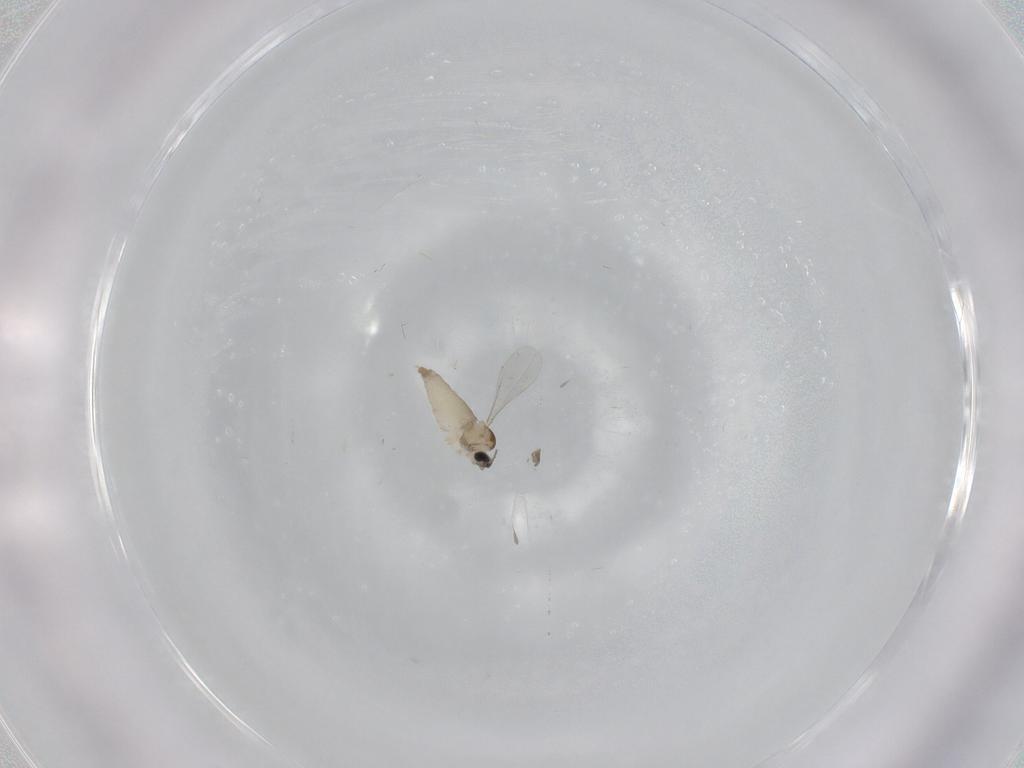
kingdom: Animalia
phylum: Arthropoda
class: Insecta
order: Diptera
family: Cecidomyiidae
